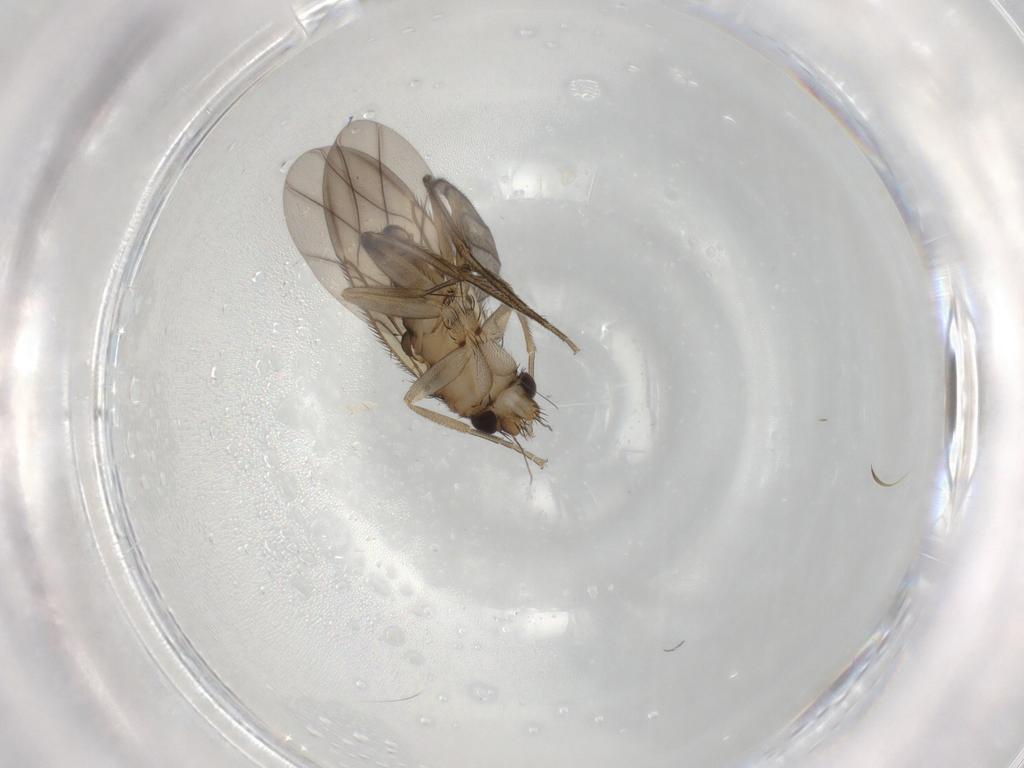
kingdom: Animalia
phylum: Arthropoda
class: Insecta
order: Diptera
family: Phoridae
